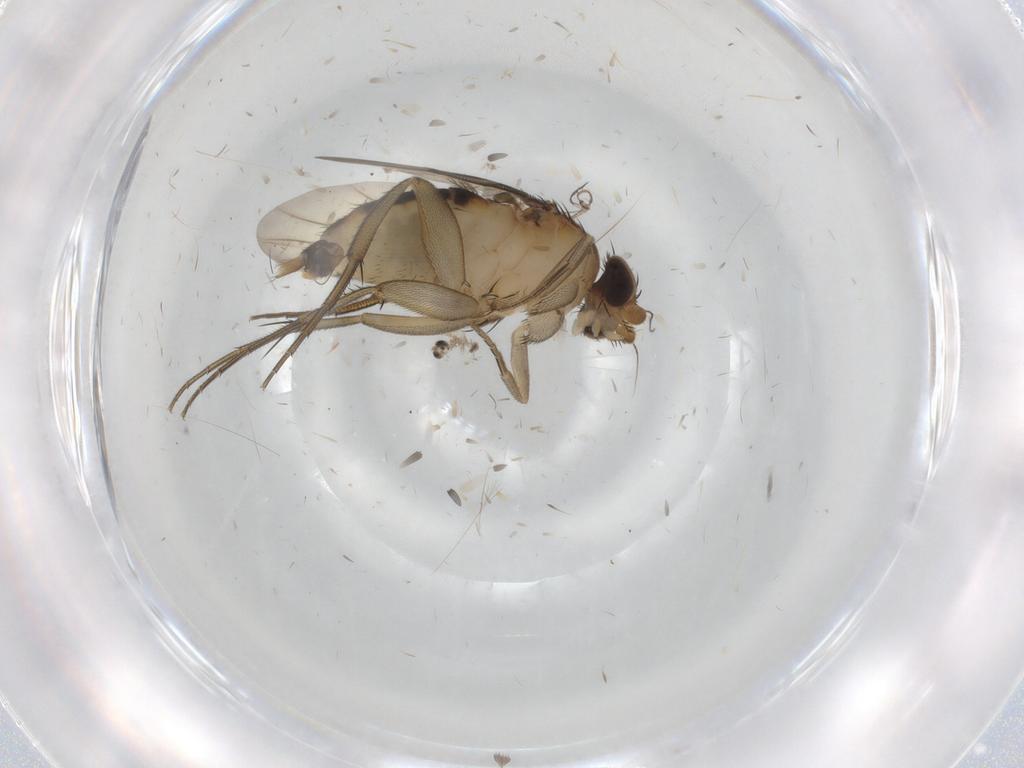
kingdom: Animalia
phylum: Arthropoda
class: Insecta
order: Diptera
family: Phoridae
